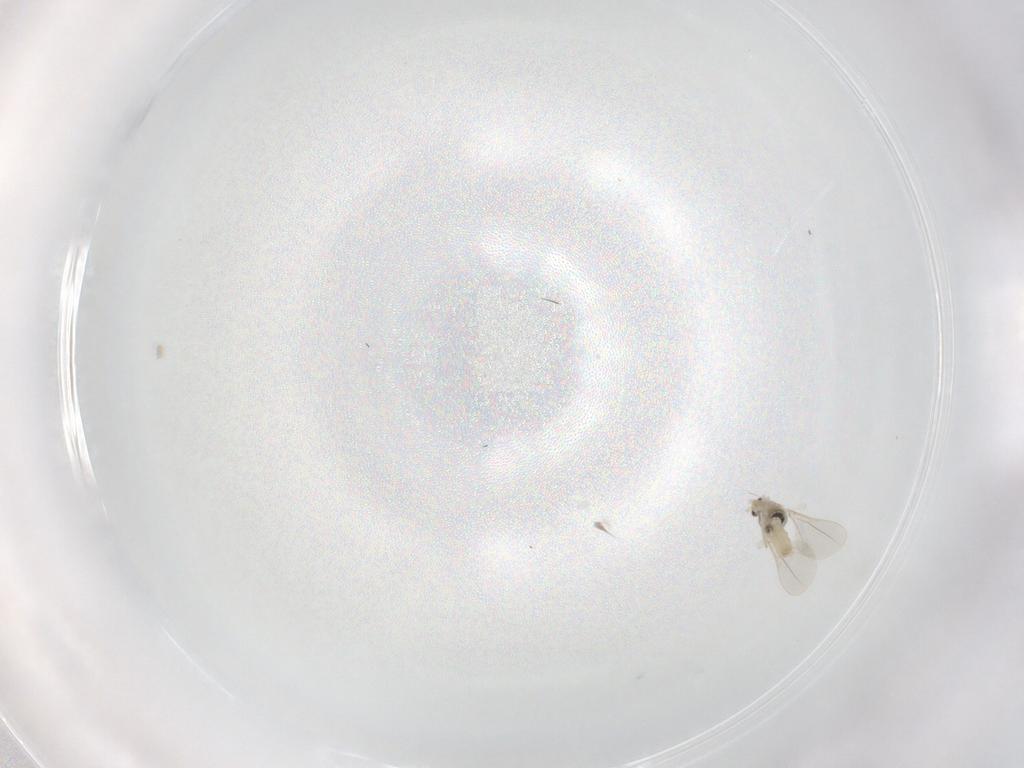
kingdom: Animalia
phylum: Arthropoda
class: Insecta
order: Diptera
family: Cecidomyiidae
